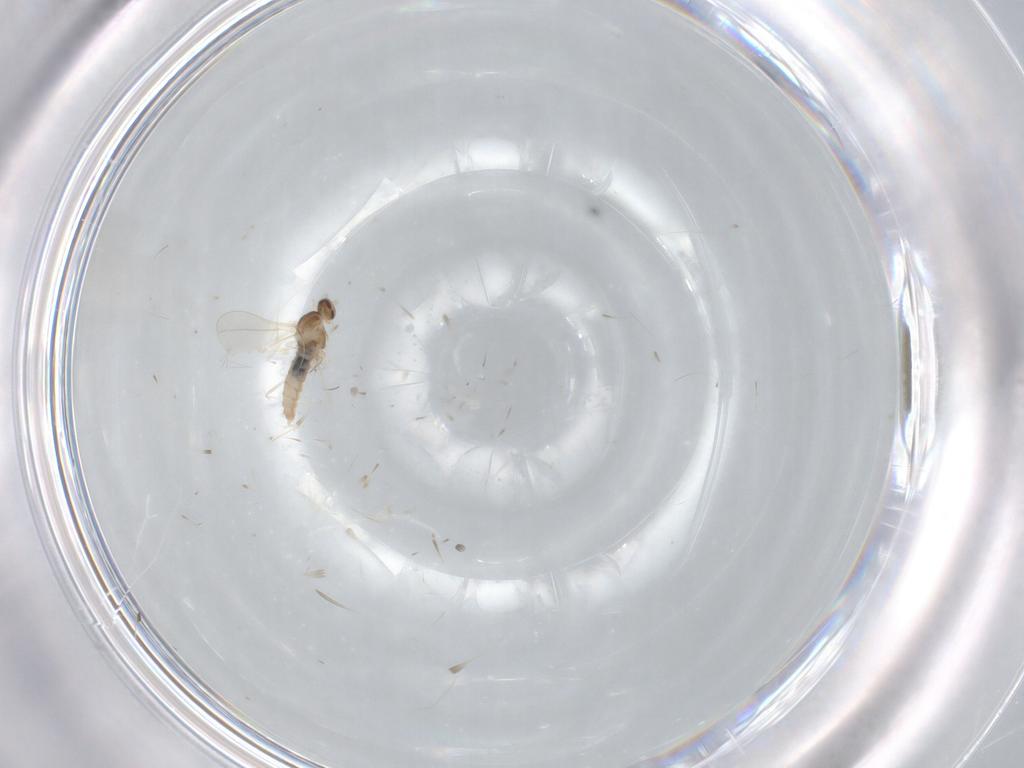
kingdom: Animalia
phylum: Arthropoda
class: Insecta
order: Diptera
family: Cecidomyiidae
